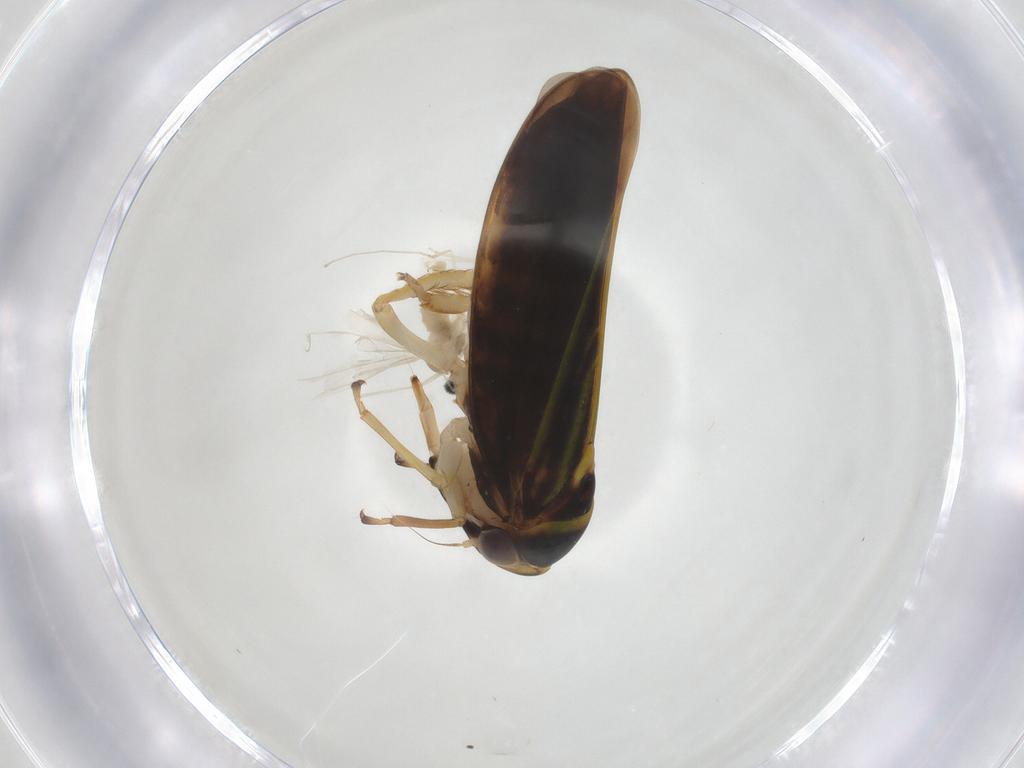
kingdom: Animalia
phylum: Arthropoda
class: Insecta
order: Hemiptera
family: Cicadellidae
